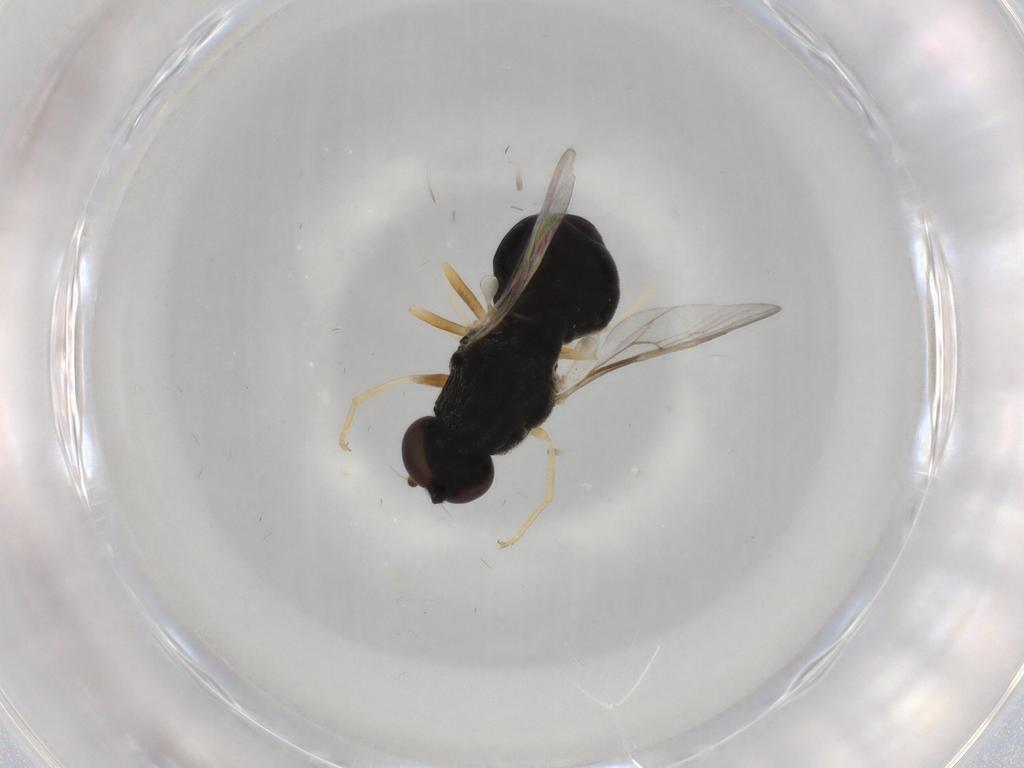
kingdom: Animalia
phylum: Arthropoda
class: Insecta
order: Diptera
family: Stratiomyidae
